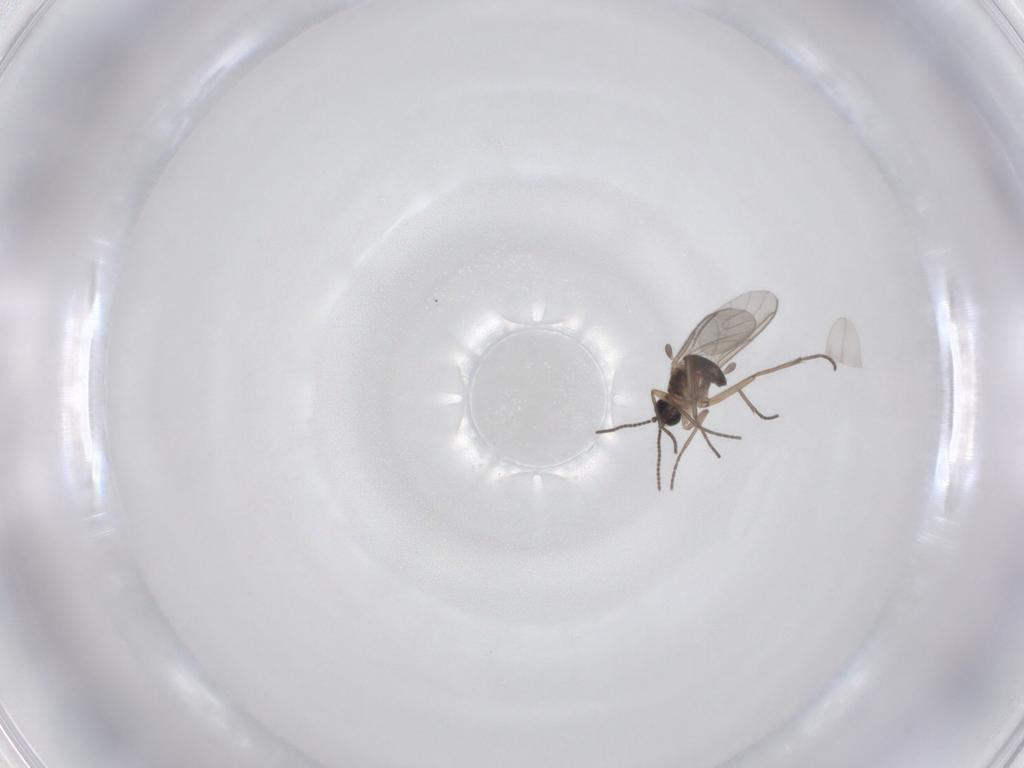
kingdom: Animalia
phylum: Arthropoda
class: Insecta
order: Diptera
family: Sciaridae
